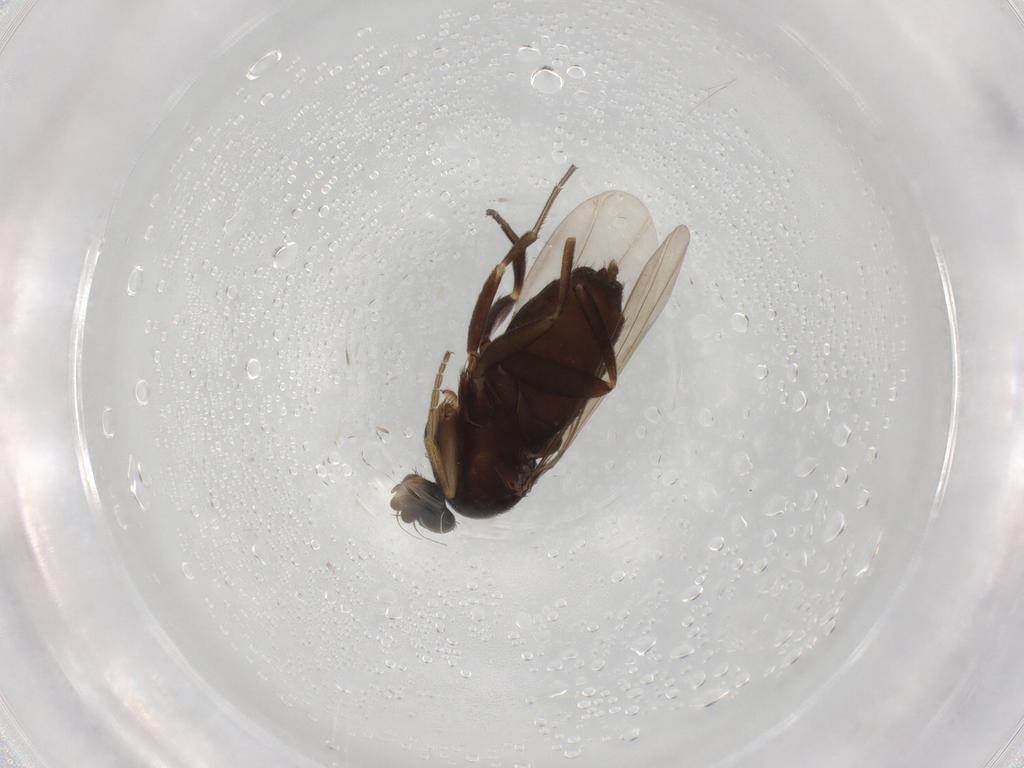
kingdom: Animalia
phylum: Arthropoda
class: Insecta
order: Diptera
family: Phoridae
